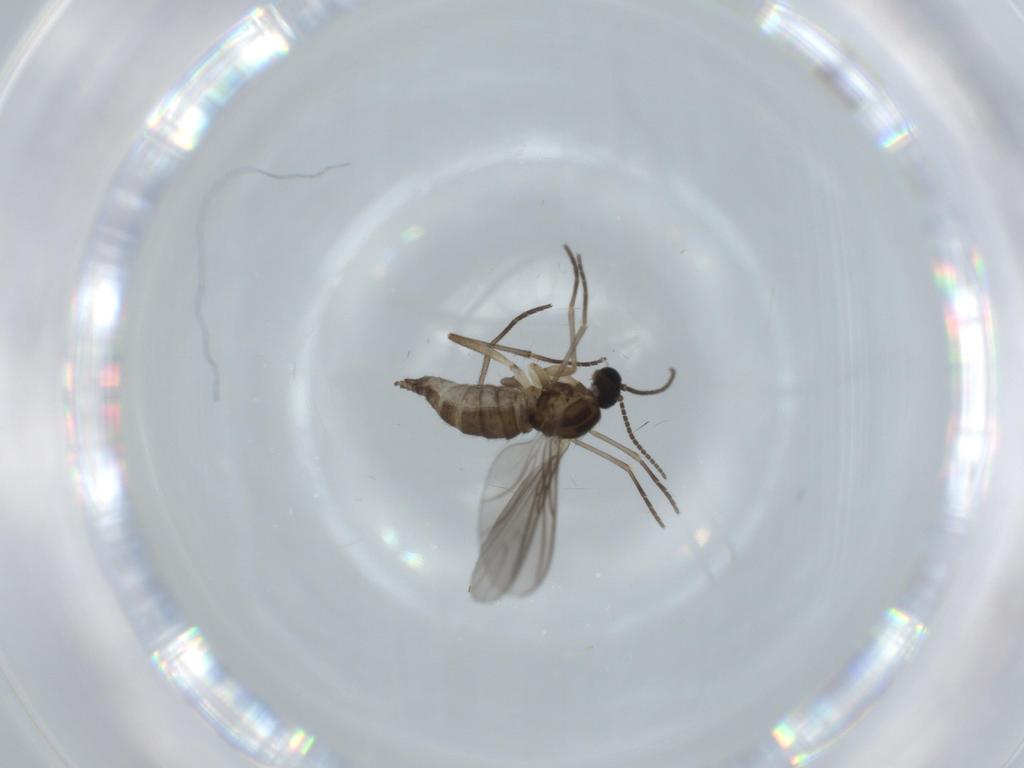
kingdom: Animalia
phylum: Arthropoda
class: Insecta
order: Diptera
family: Sciaridae
